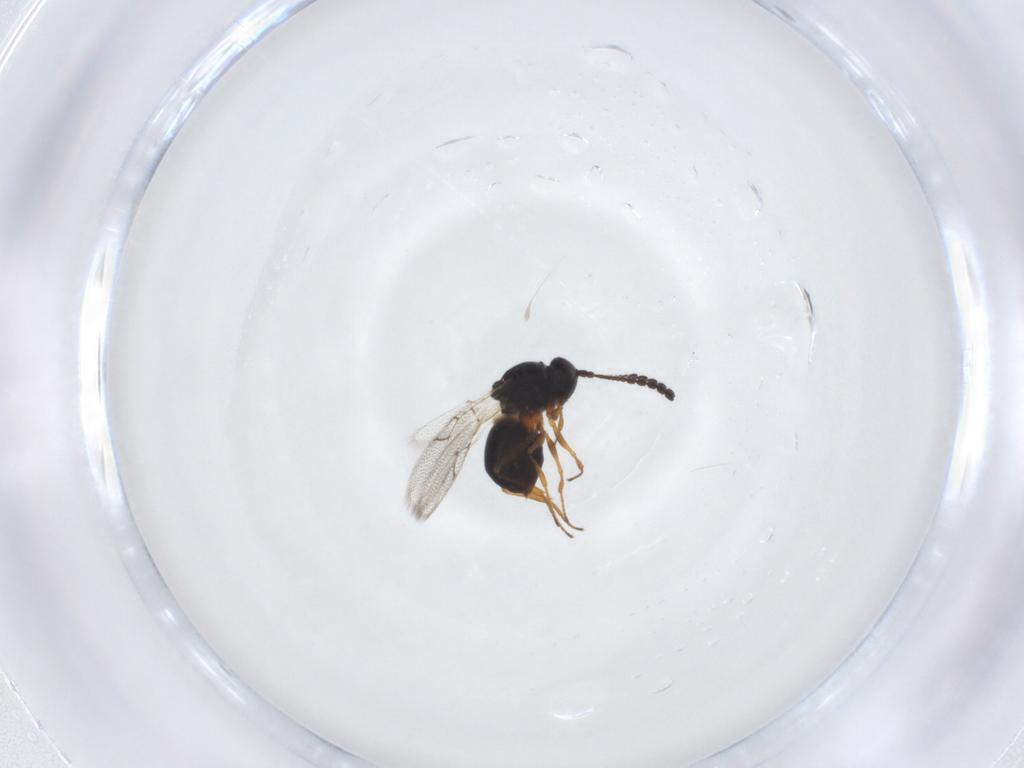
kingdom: Animalia
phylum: Arthropoda
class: Insecta
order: Hymenoptera
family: Figitidae
